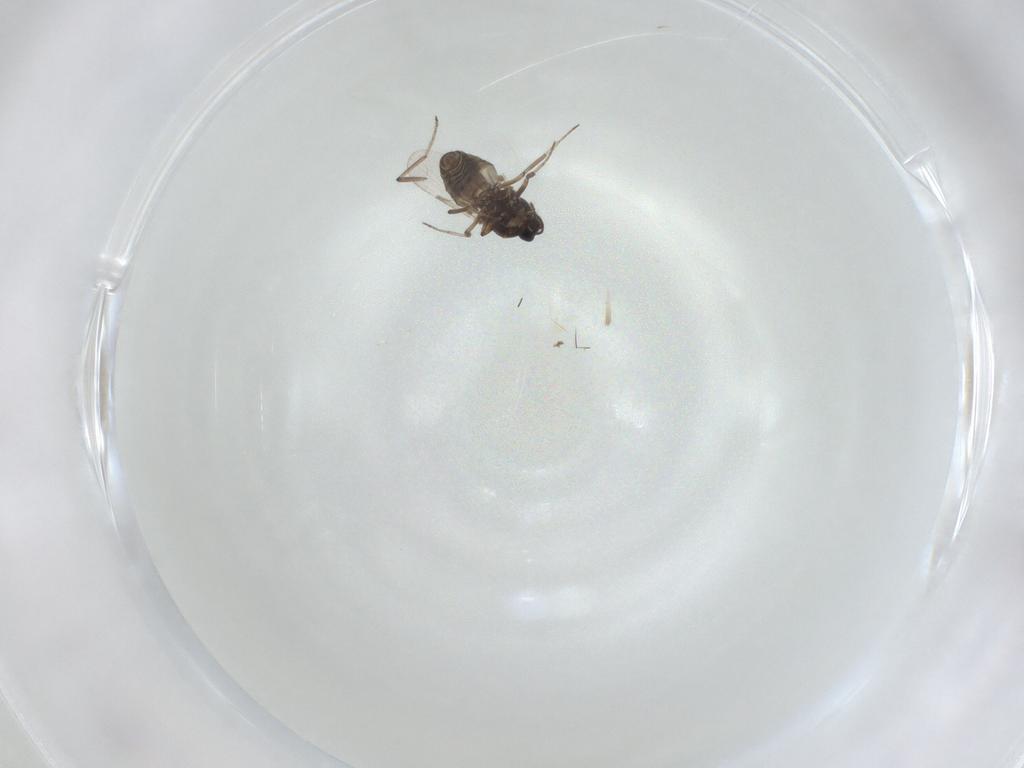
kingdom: Animalia
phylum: Arthropoda
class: Insecta
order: Diptera
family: Ceratopogonidae
